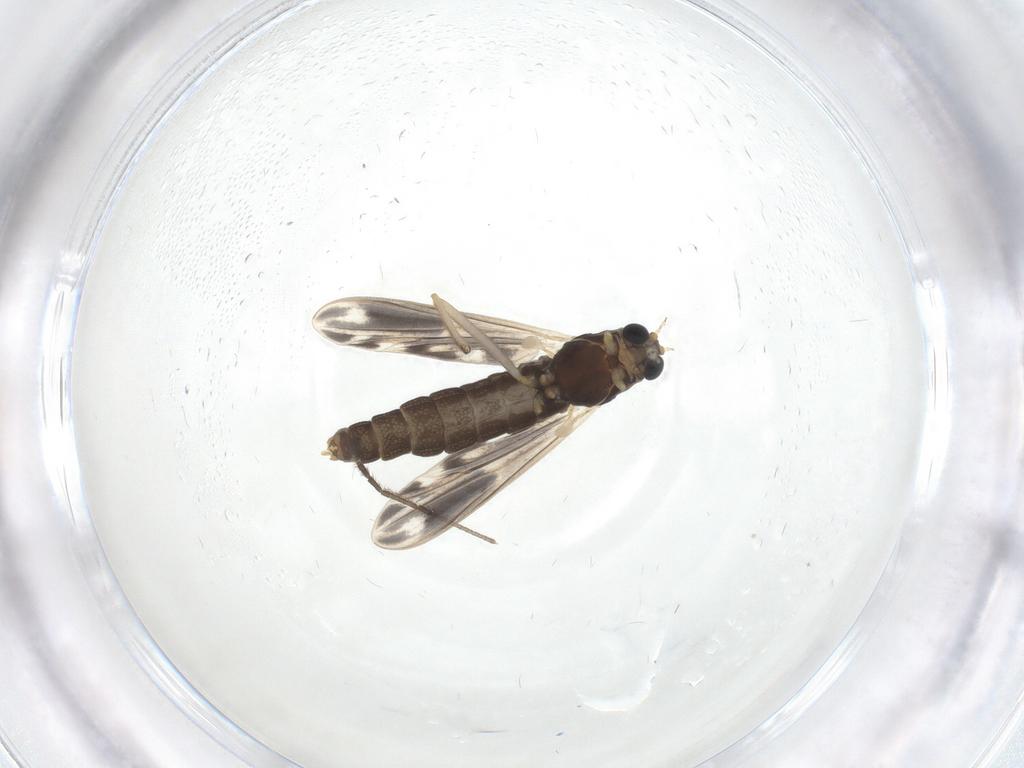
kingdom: Animalia
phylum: Arthropoda
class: Insecta
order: Diptera
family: Chironomidae
